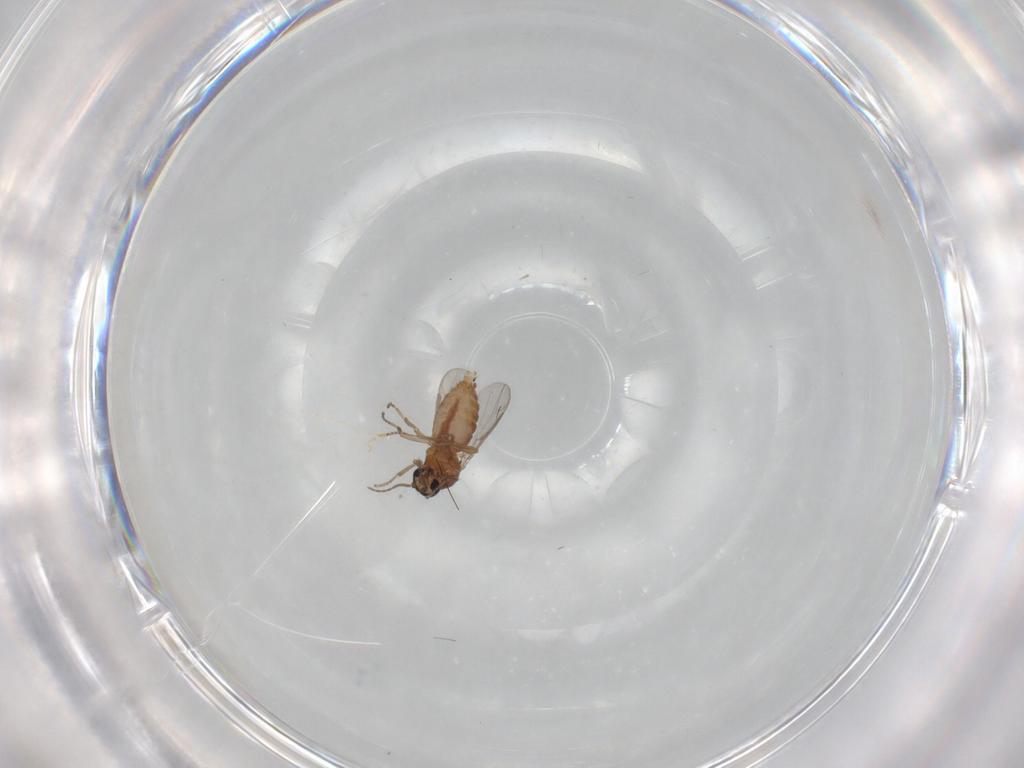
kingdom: Animalia
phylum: Arthropoda
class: Insecta
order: Diptera
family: Ceratopogonidae
